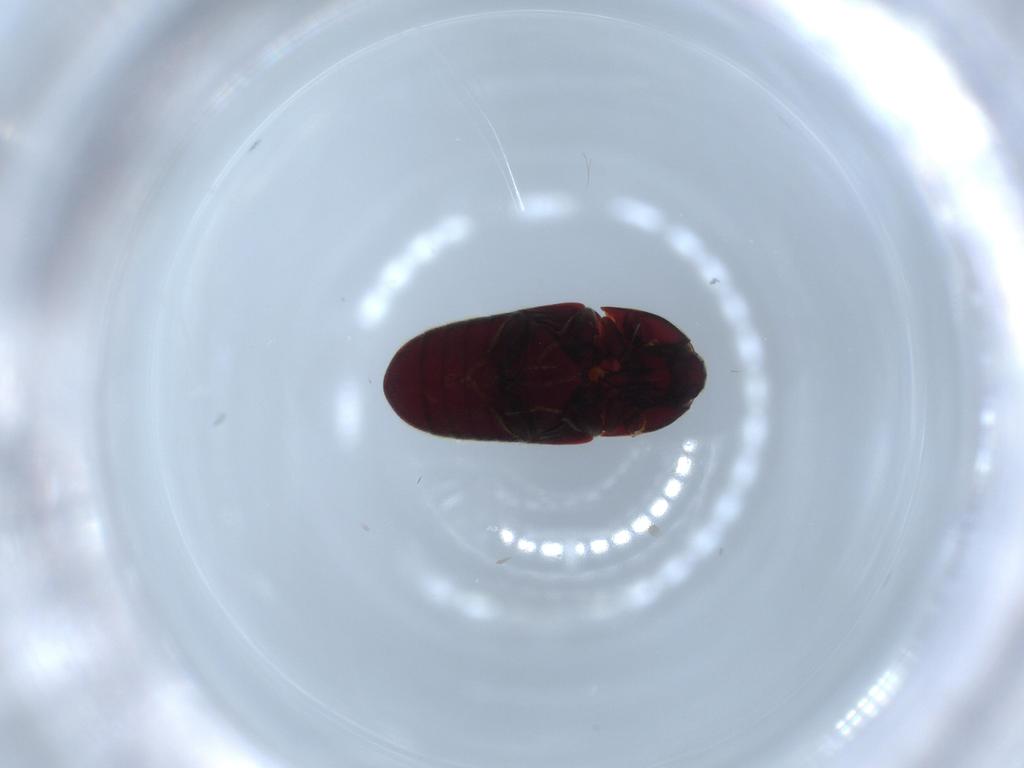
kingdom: Animalia
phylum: Arthropoda
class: Insecta
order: Coleoptera
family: Throscidae
